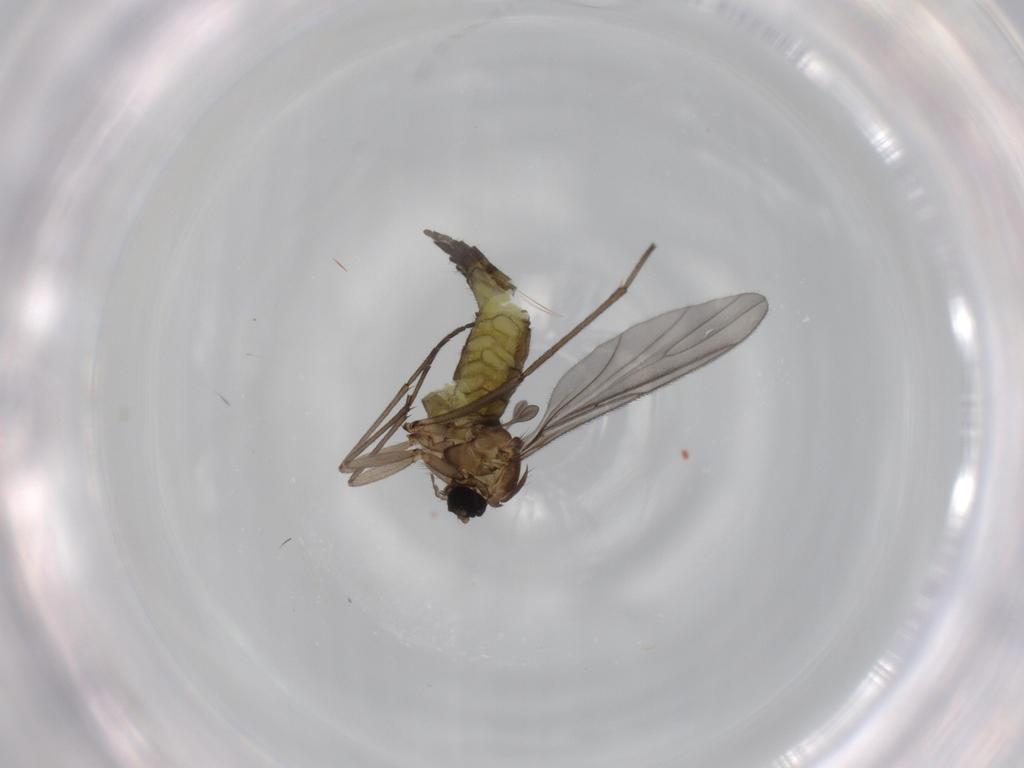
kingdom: Animalia
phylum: Arthropoda
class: Insecta
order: Diptera
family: Sciaridae
